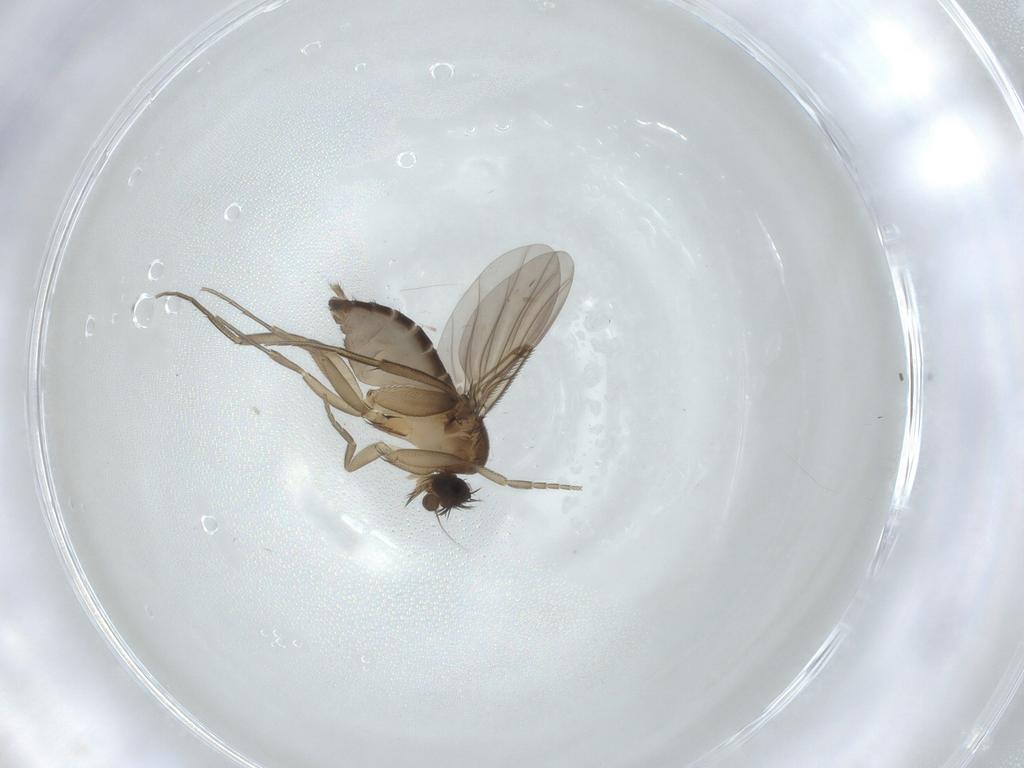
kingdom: Animalia
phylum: Arthropoda
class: Insecta
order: Diptera
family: Phoridae
